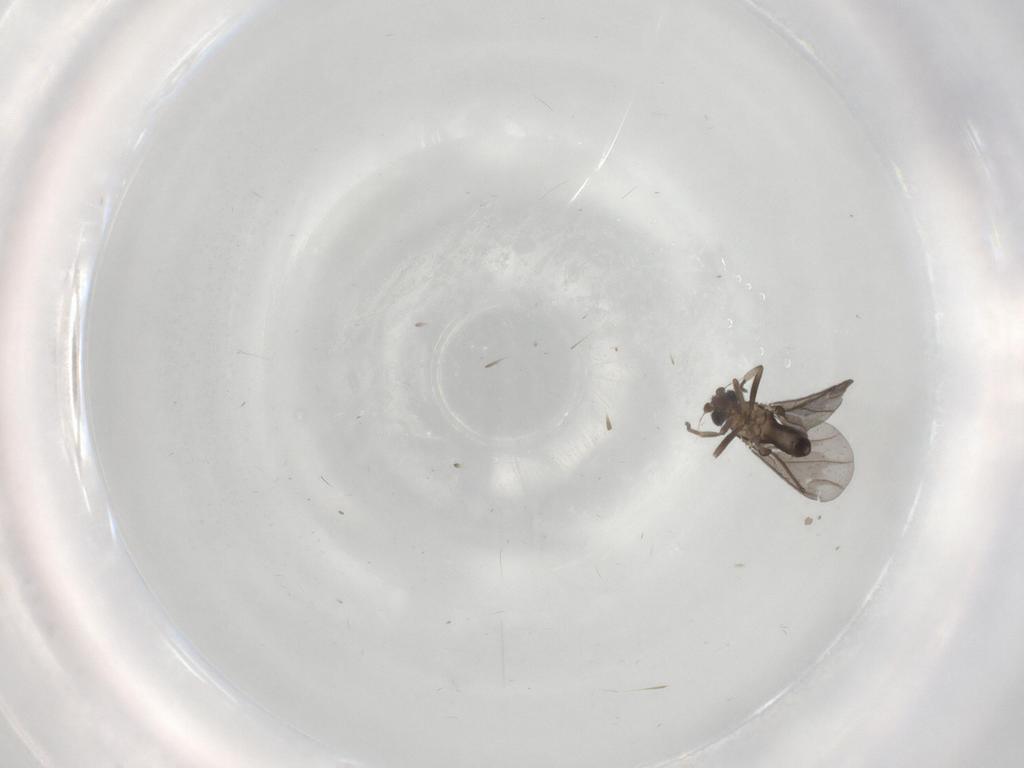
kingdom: Animalia
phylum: Arthropoda
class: Insecta
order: Diptera
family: Phoridae
